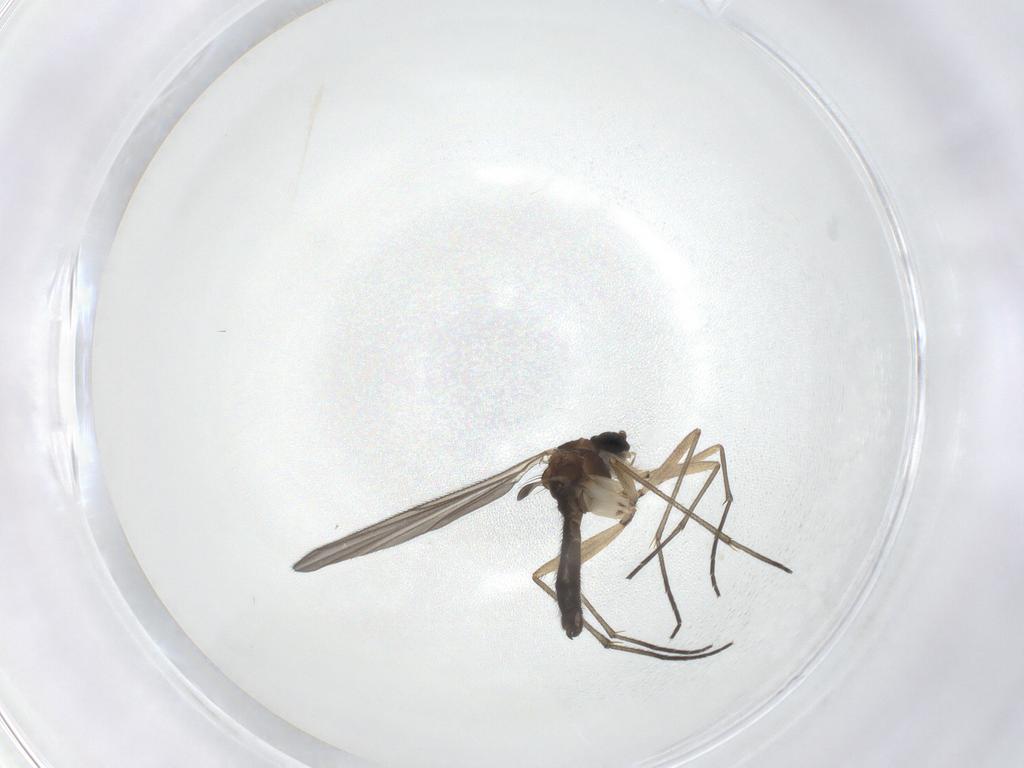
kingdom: Animalia
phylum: Arthropoda
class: Insecta
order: Diptera
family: Sciaridae
